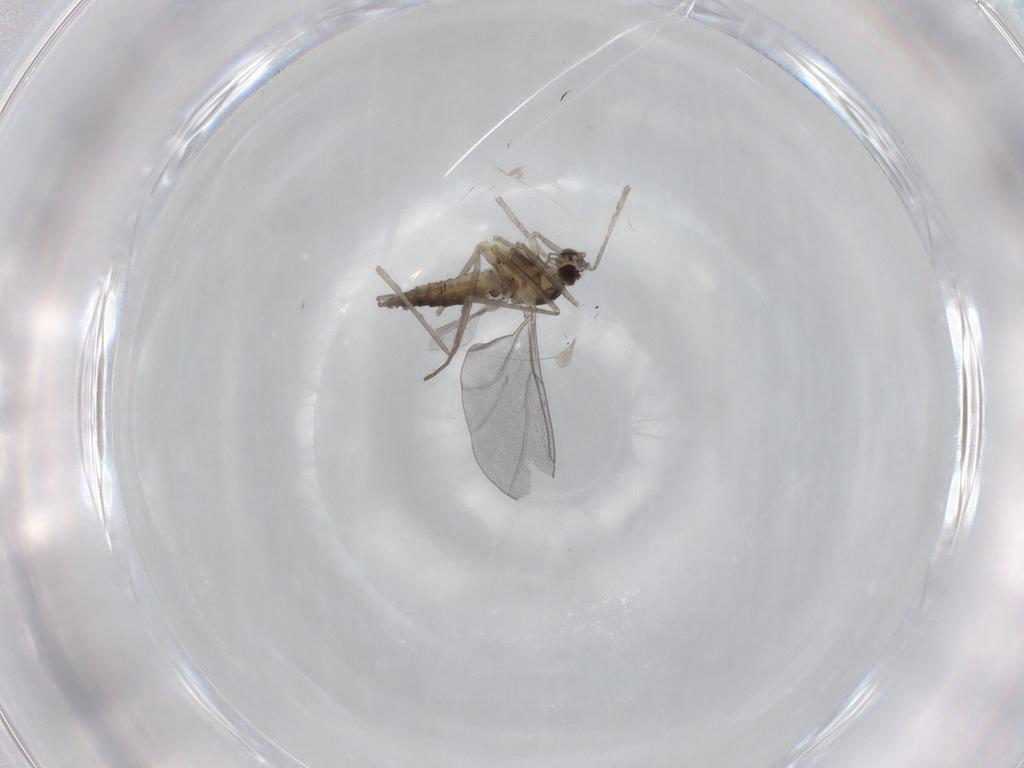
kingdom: Animalia
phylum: Arthropoda
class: Insecta
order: Diptera
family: Cecidomyiidae
